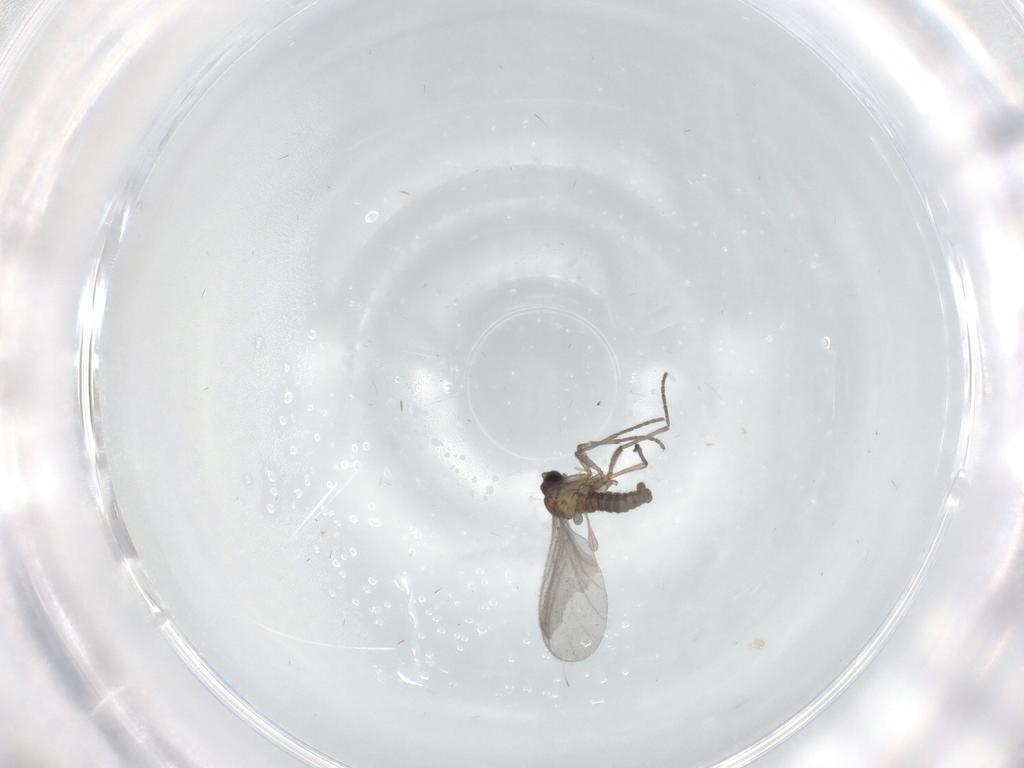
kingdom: Animalia
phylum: Arthropoda
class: Insecta
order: Diptera
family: Sciaridae
